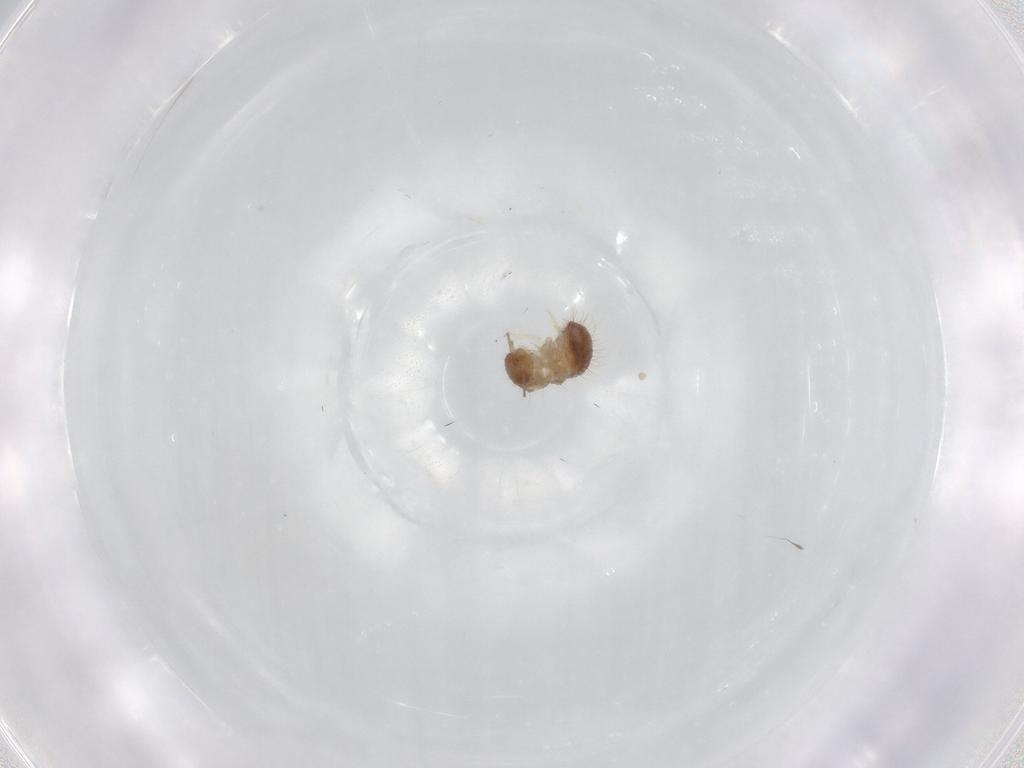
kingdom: Animalia
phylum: Arthropoda
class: Insecta
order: Coleoptera
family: Staphylinidae
